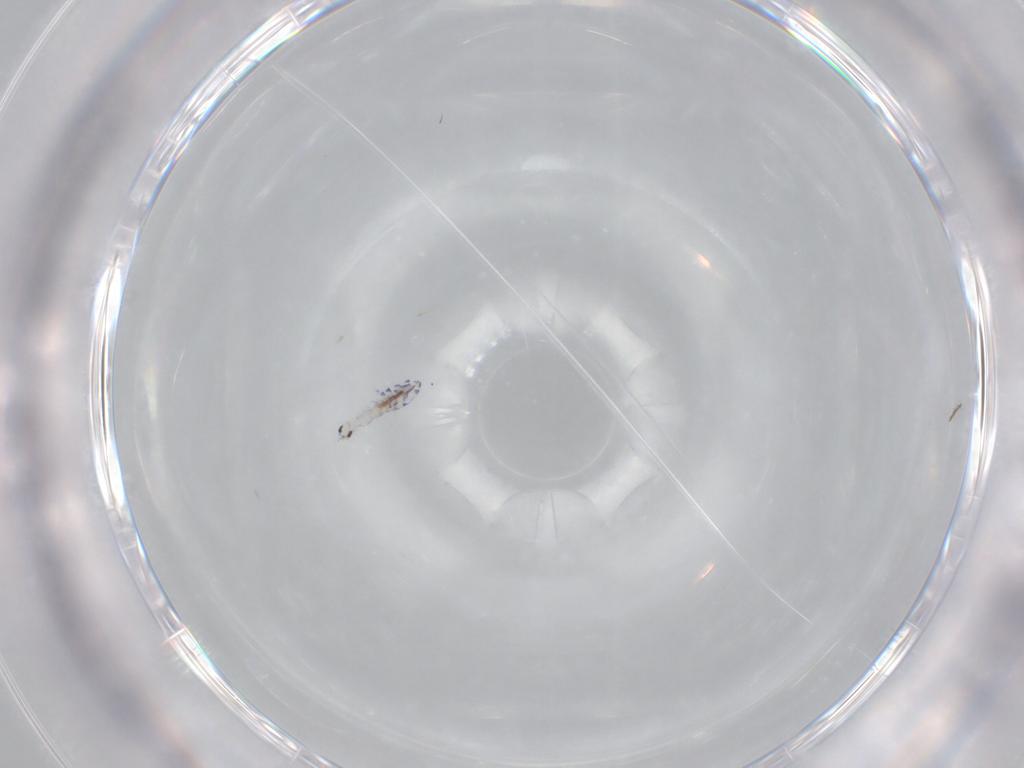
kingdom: Animalia
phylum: Arthropoda
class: Collembola
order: Entomobryomorpha
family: Entomobryidae
